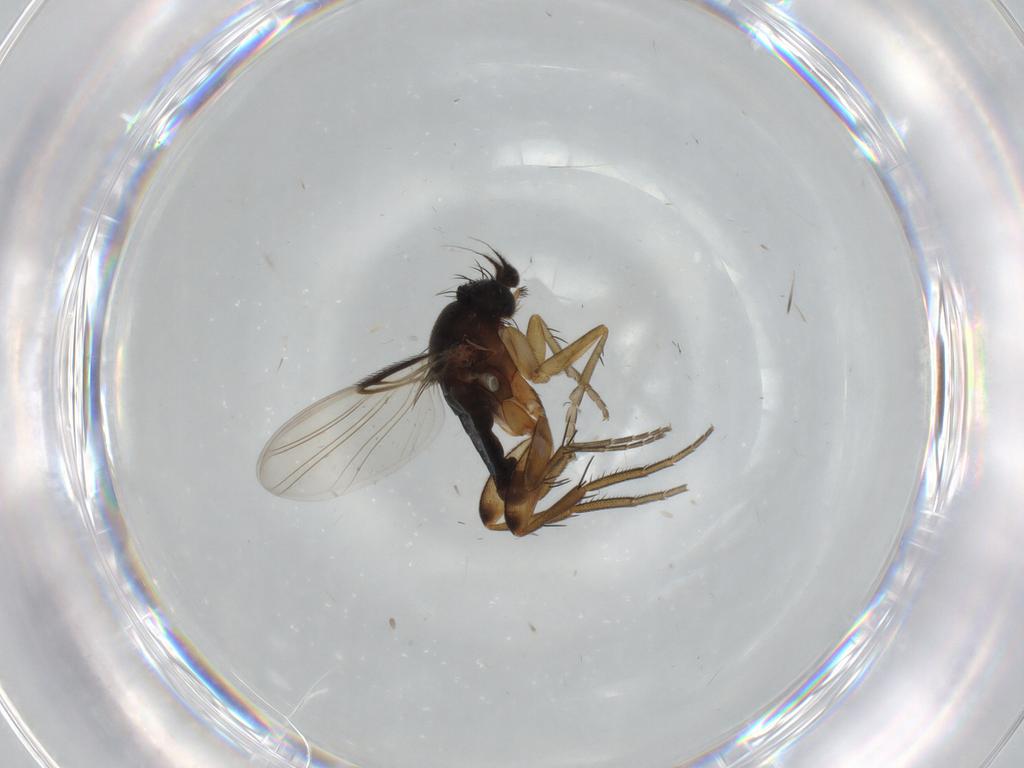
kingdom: Animalia
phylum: Arthropoda
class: Insecta
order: Diptera
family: Phoridae
